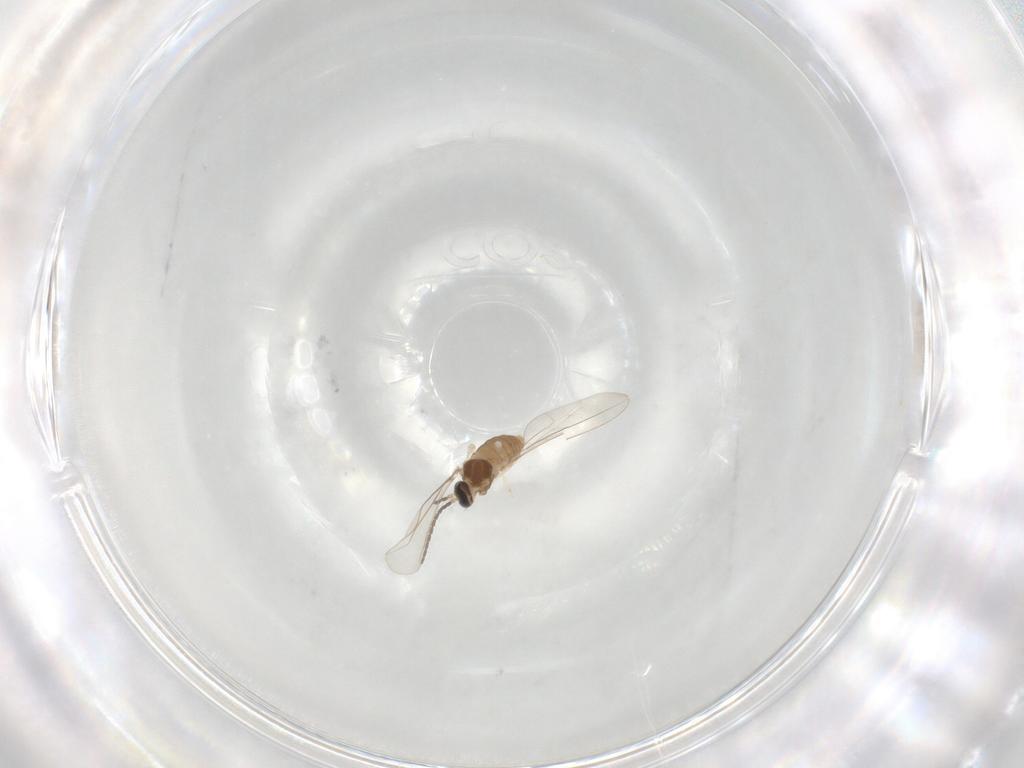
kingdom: Animalia
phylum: Arthropoda
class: Insecta
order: Diptera
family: Cecidomyiidae
